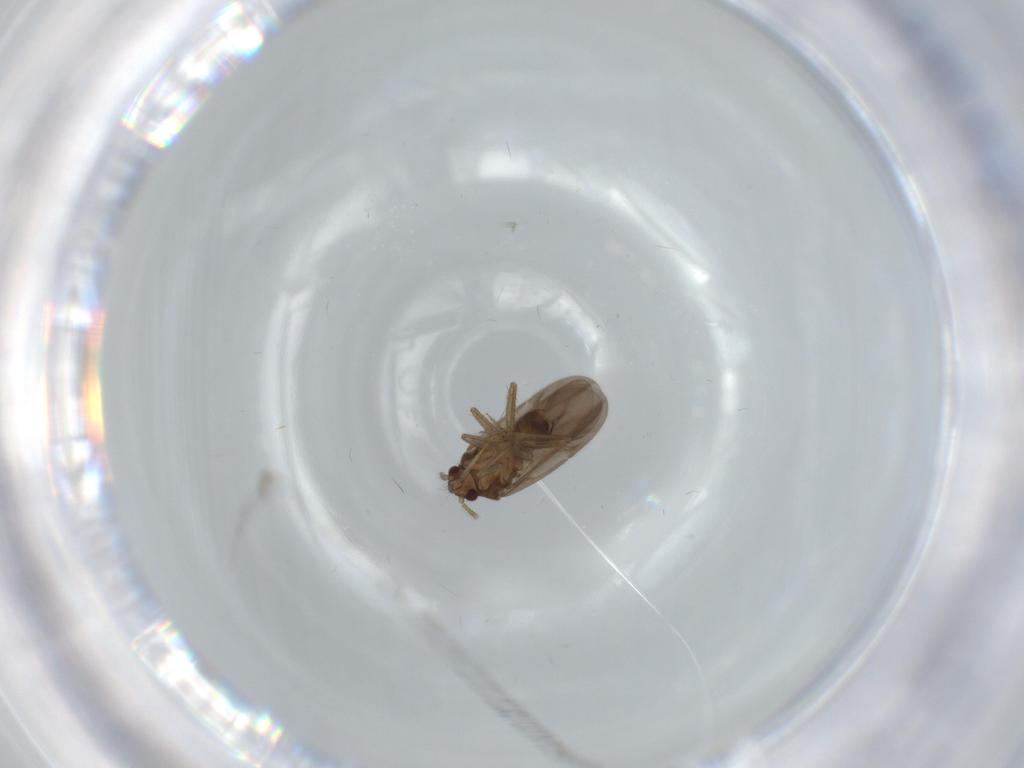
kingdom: Animalia
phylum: Arthropoda
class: Insecta
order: Hemiptera
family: Ceratocombidae
